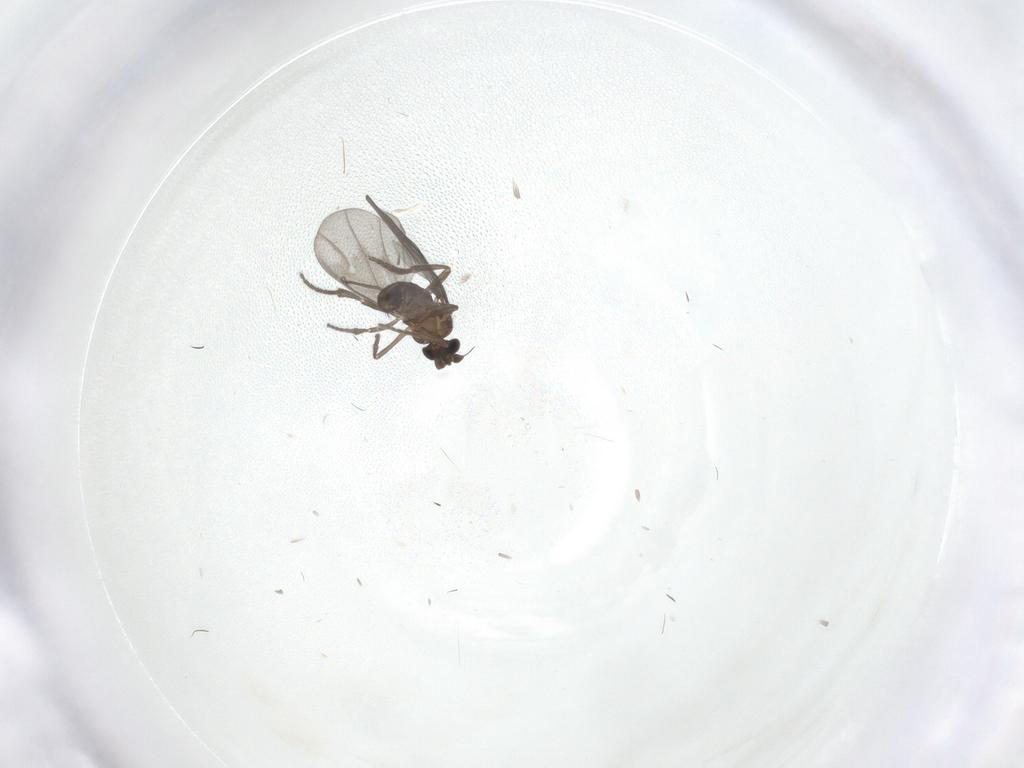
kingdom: Animalia
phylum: Arthropoda
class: Insecta
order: Diptera
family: Phoridae
